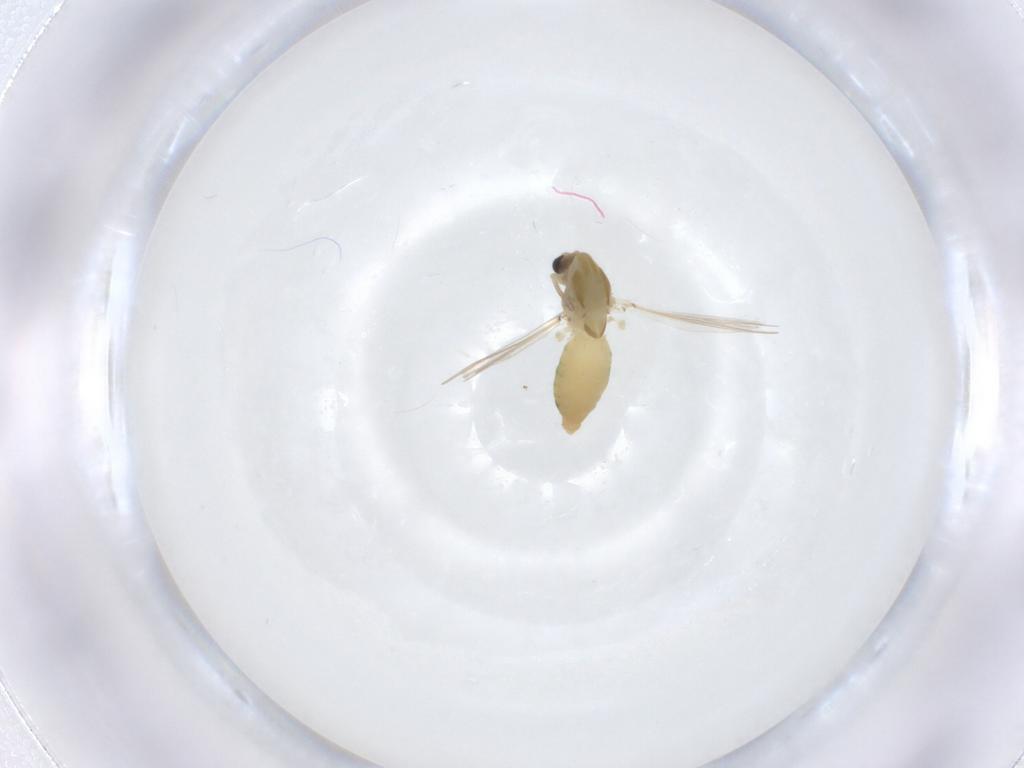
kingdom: Animalia
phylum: Arthropoda
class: Insecta
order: Diptera
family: Chironomidae
